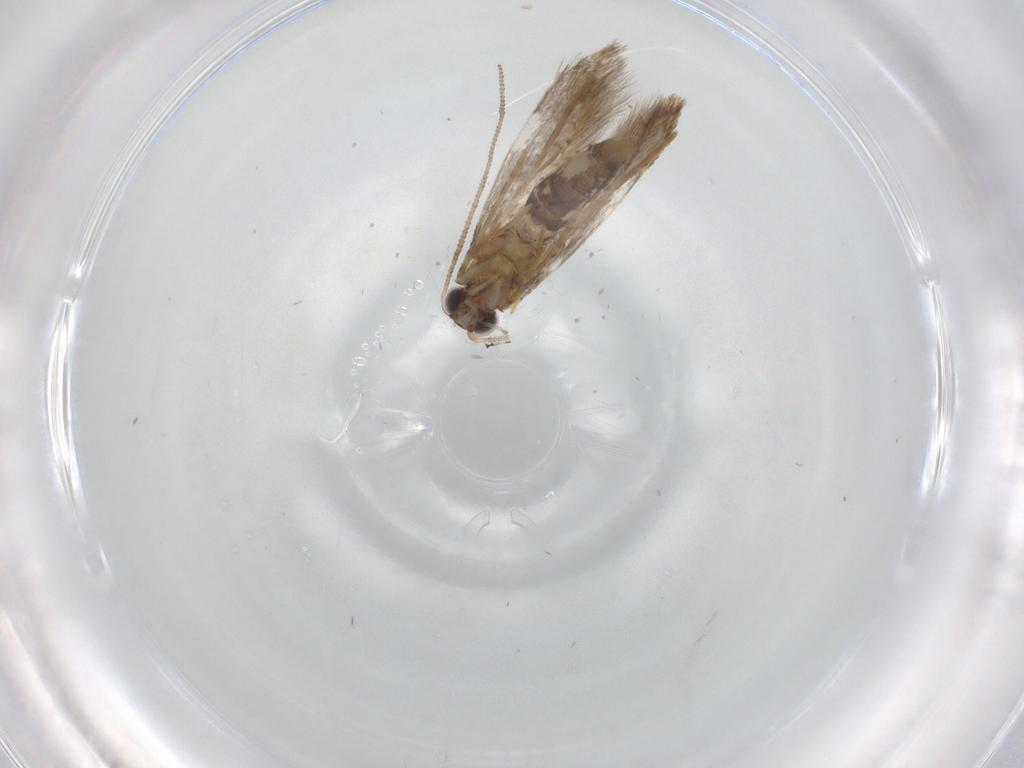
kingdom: Animalia
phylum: Arthropoda
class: Insecta
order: Lepidoptera
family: Tineidae
